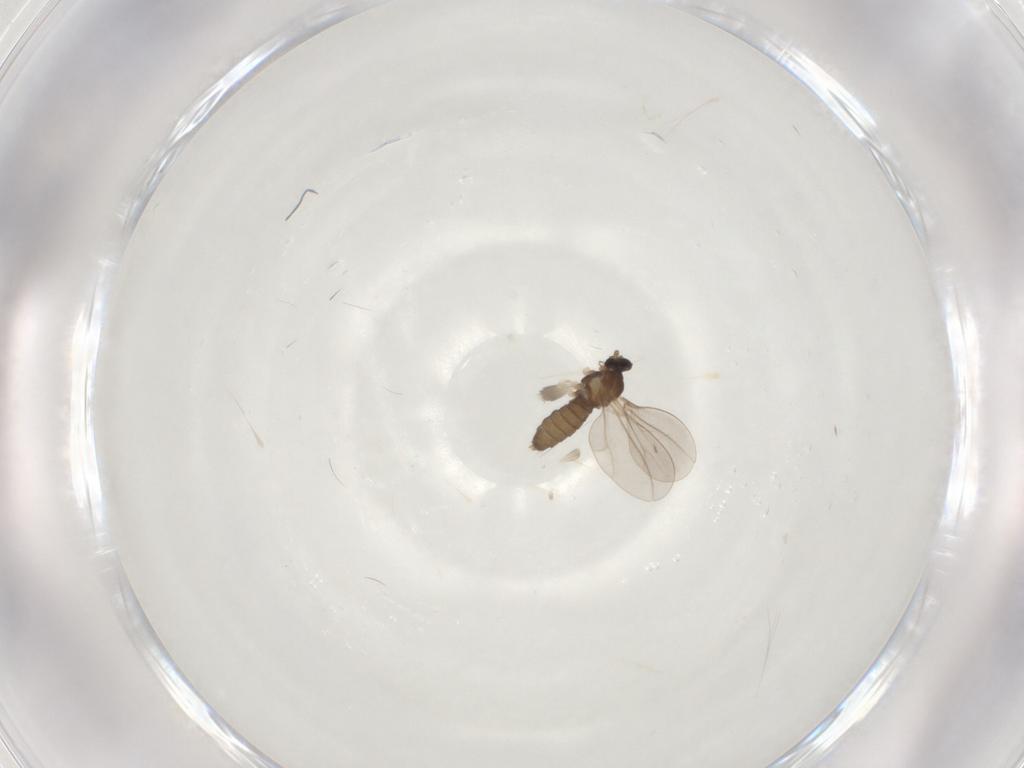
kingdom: Animalia
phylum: Arthropoda
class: Insecta
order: Diptera
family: Cecidomyiidae
